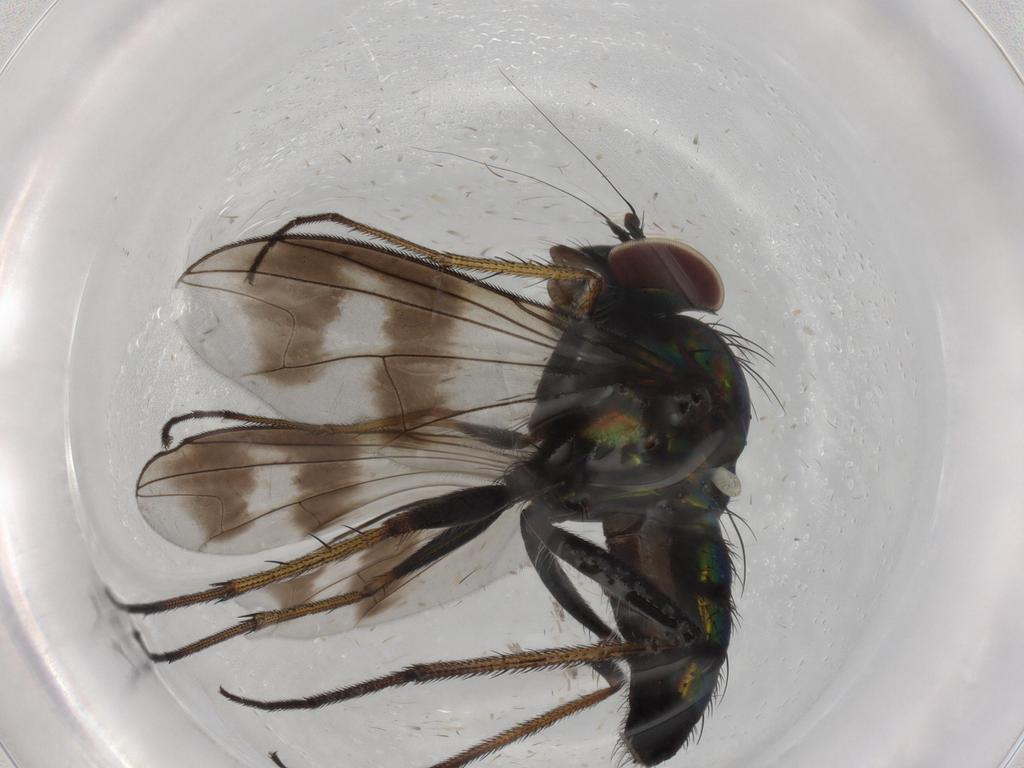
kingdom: Animalia
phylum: Arthropoda
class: Insecta
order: Diptera
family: Dolichopodidae
